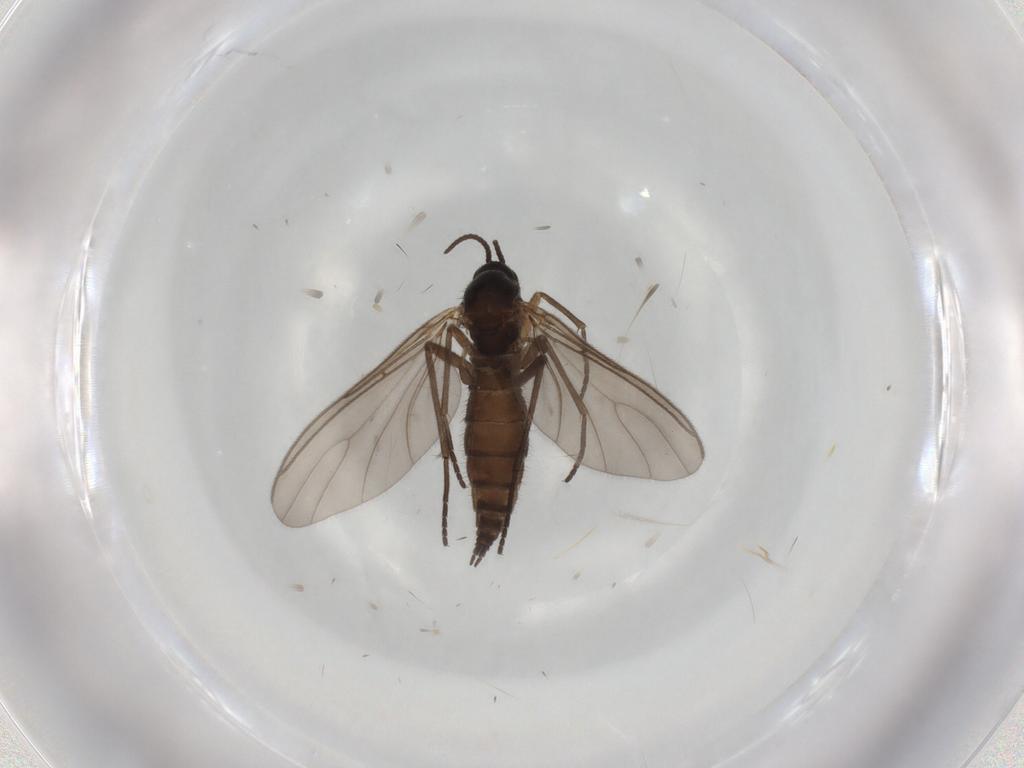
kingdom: Animalia
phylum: Arthropoda
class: Insecta
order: Diptera
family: Sciaridae
